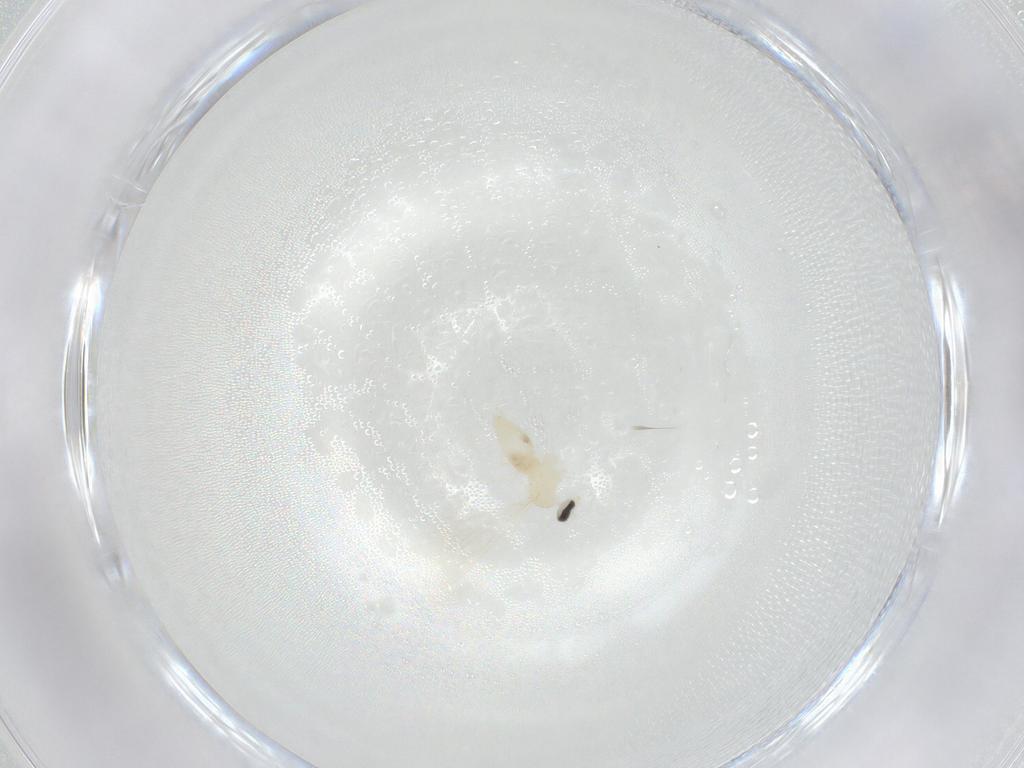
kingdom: Animalia
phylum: Arthropoda
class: Insecta
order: Diptera
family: Cecidomyiidae
